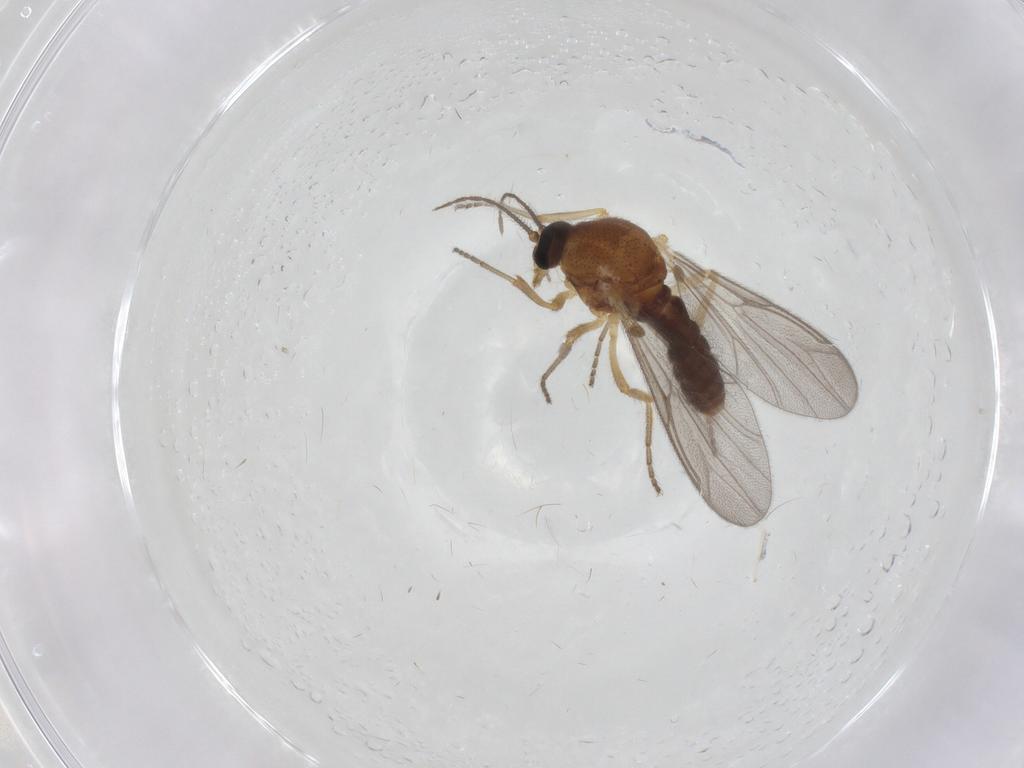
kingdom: Animalia
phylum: Arthropoda
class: Insecta
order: Diptera
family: Ceratopogonidae
